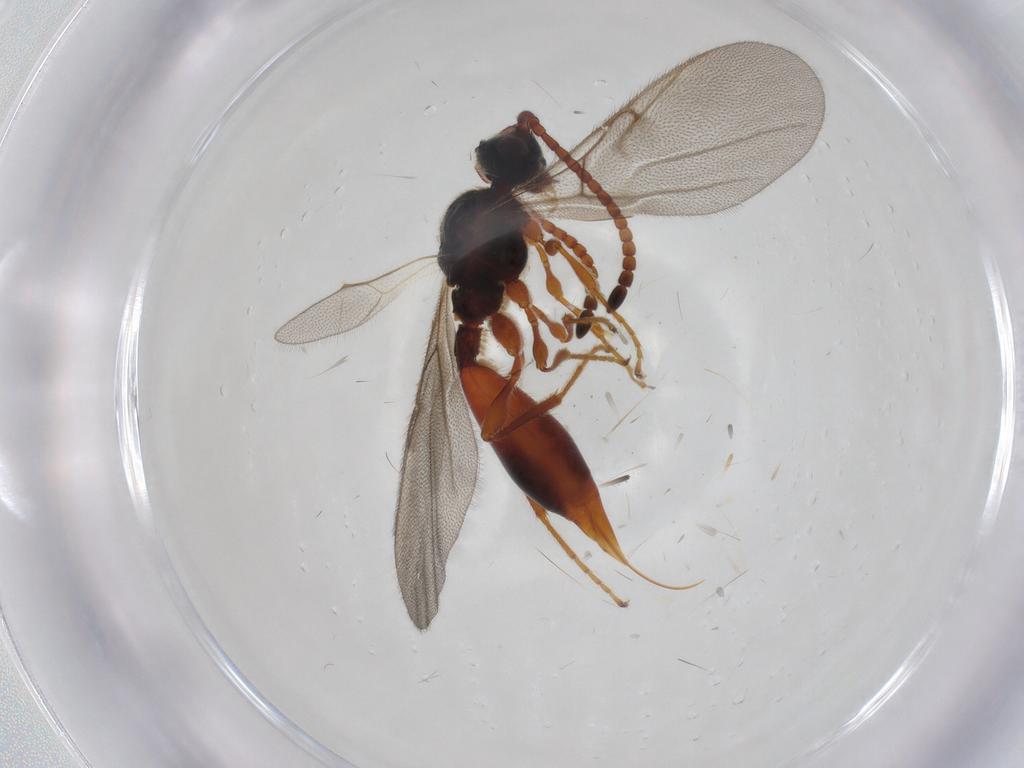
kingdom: Animalia
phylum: Arthropoda
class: Insecta
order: Hymenoptera
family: Diapriidae
